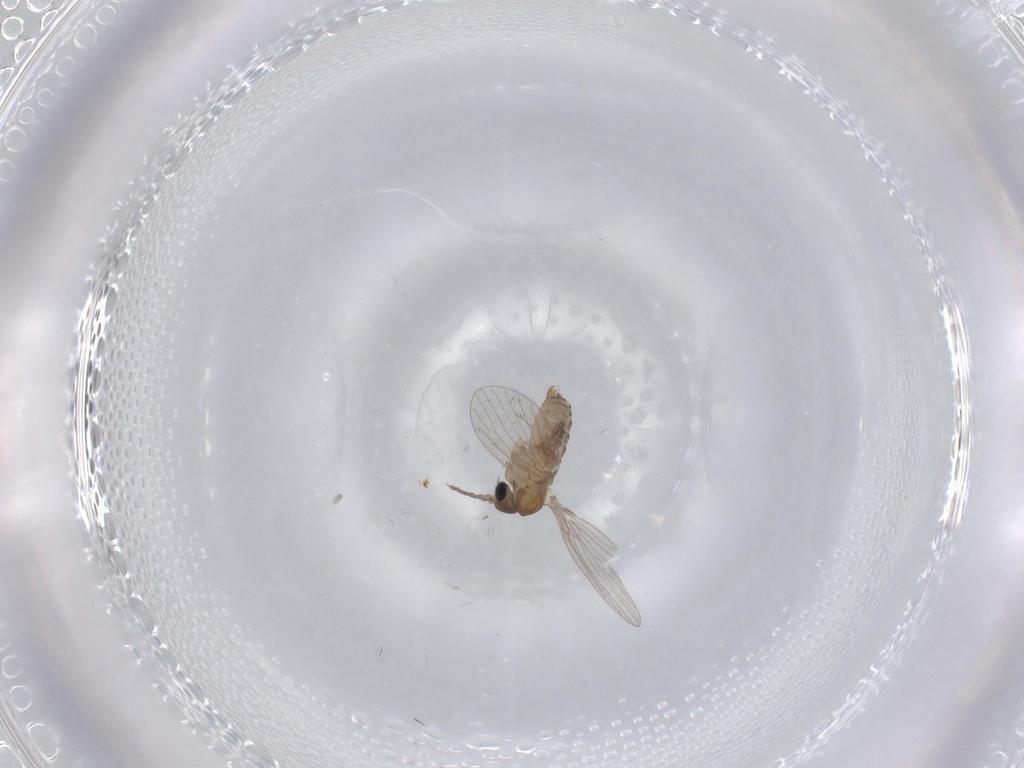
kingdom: Animalia
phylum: Arthropoda
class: Insecta
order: Diptera
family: Psychodidae
